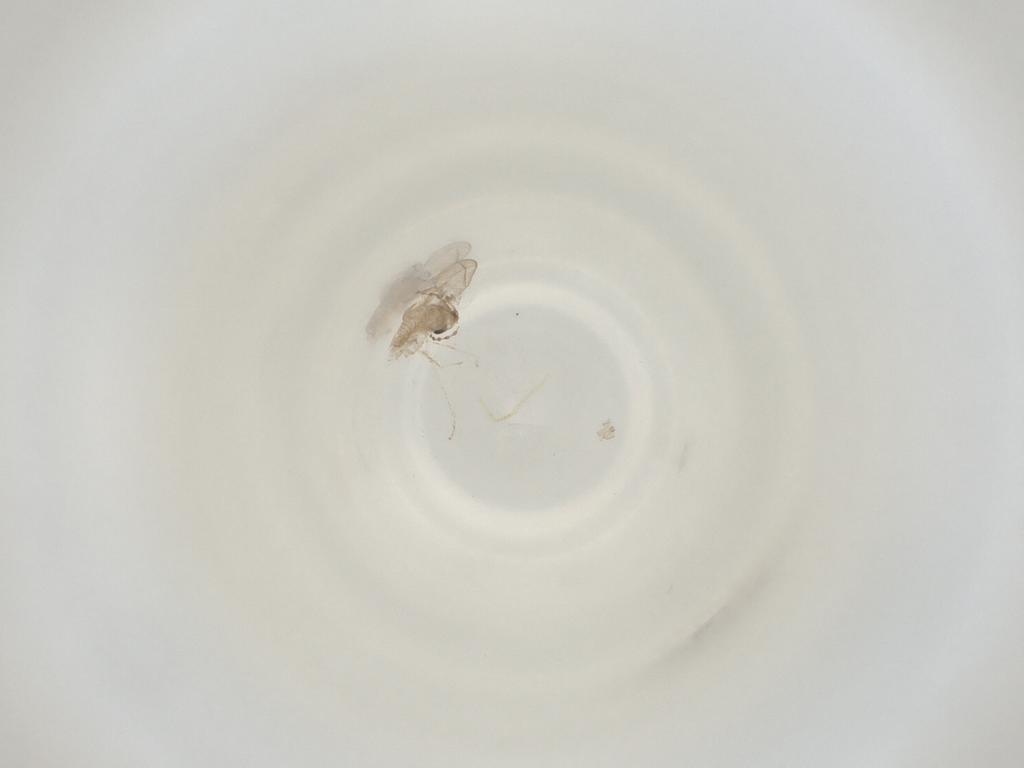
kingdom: Animalia
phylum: Arthropoda
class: Insecta
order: Diptera
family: Cecidomyiidae
